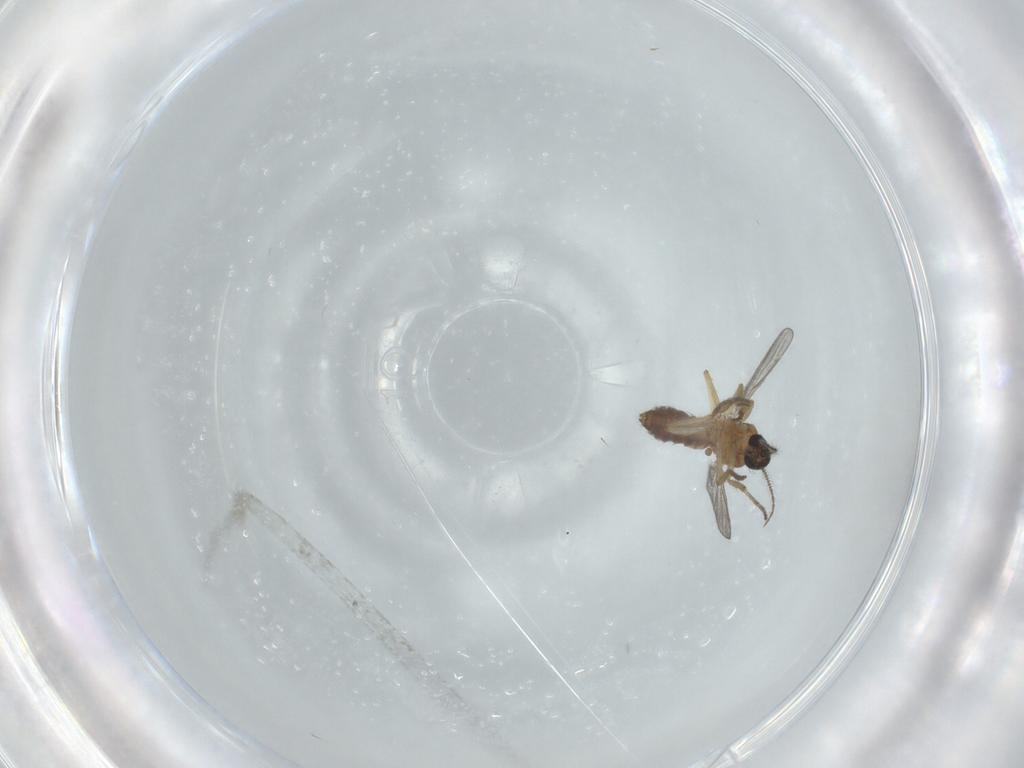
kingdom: Animalia
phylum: Arthropoda
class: Insecta
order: Diptera
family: Ceratopogonidae
